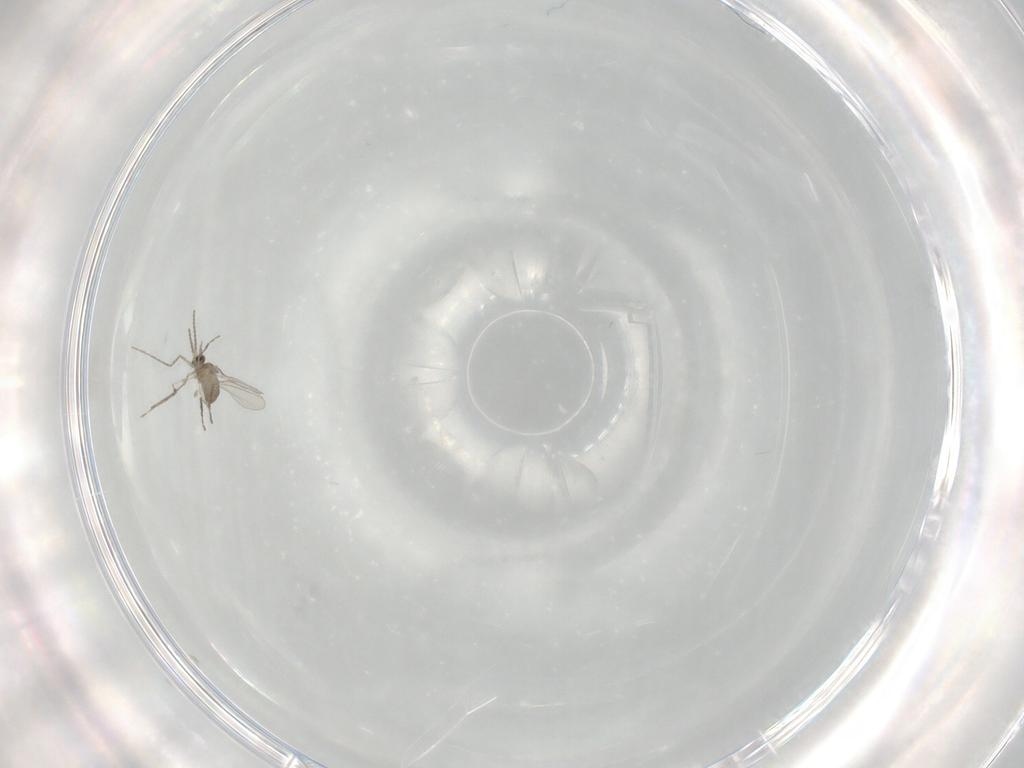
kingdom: Animalia
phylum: Arthropoda
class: Insecta
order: Diptera
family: Cecidomyiidae
